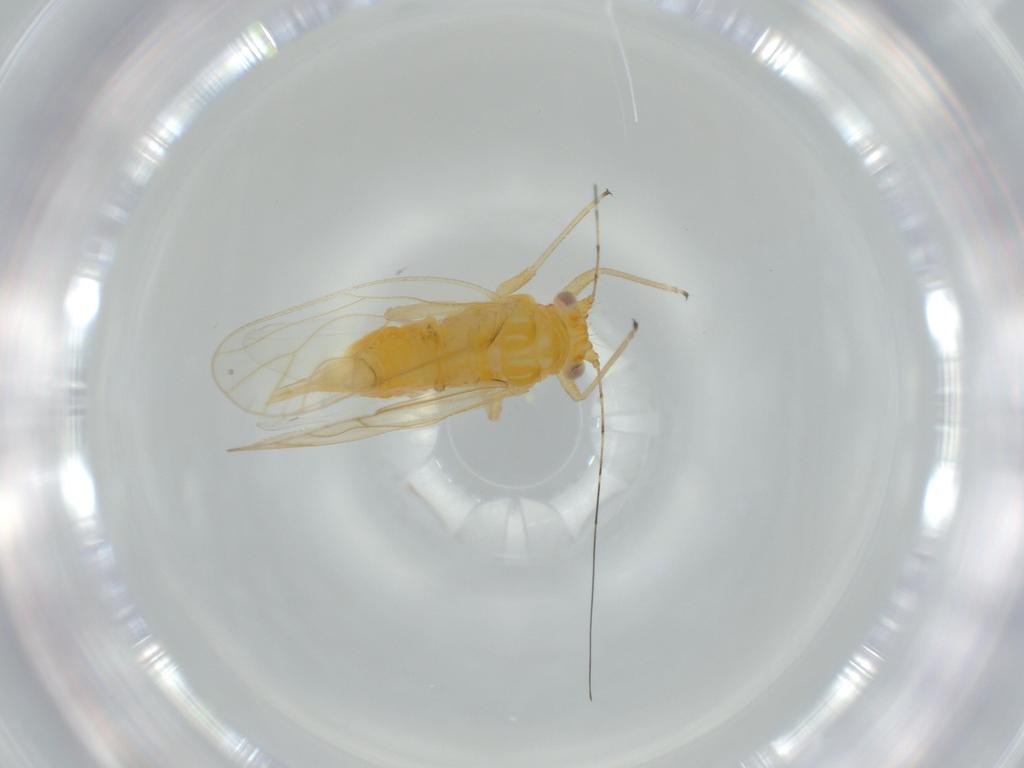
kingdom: Animalia
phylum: Arthropoda
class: Insecta
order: Hemiptera
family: Psyllidae
